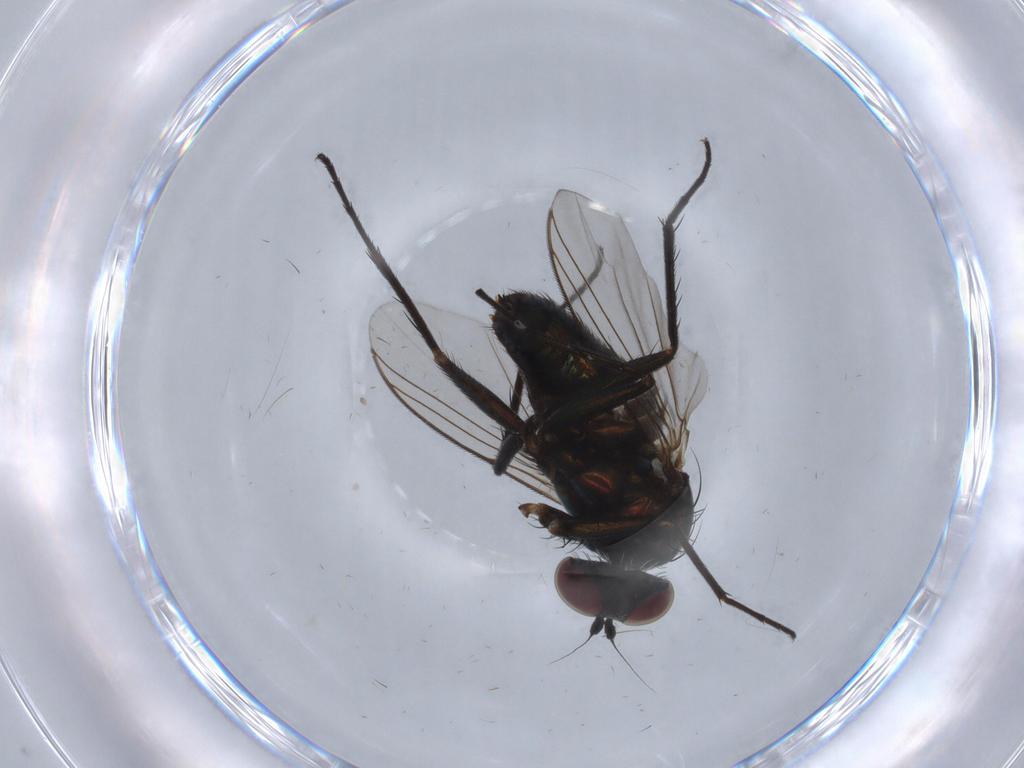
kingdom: Animalia
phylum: Arthropoda
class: Insecta
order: Diptera
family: Dolichopodidae
